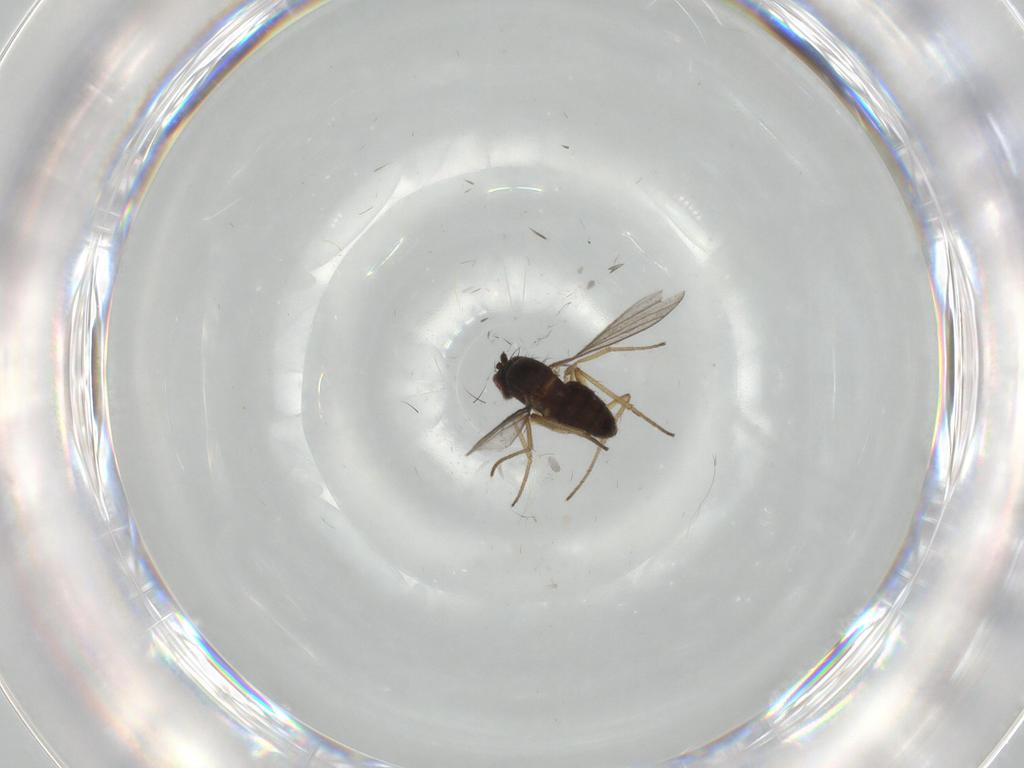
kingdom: Animalia
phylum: Arthropoda
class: Insecta
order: Diptera
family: Dolichopodidae
